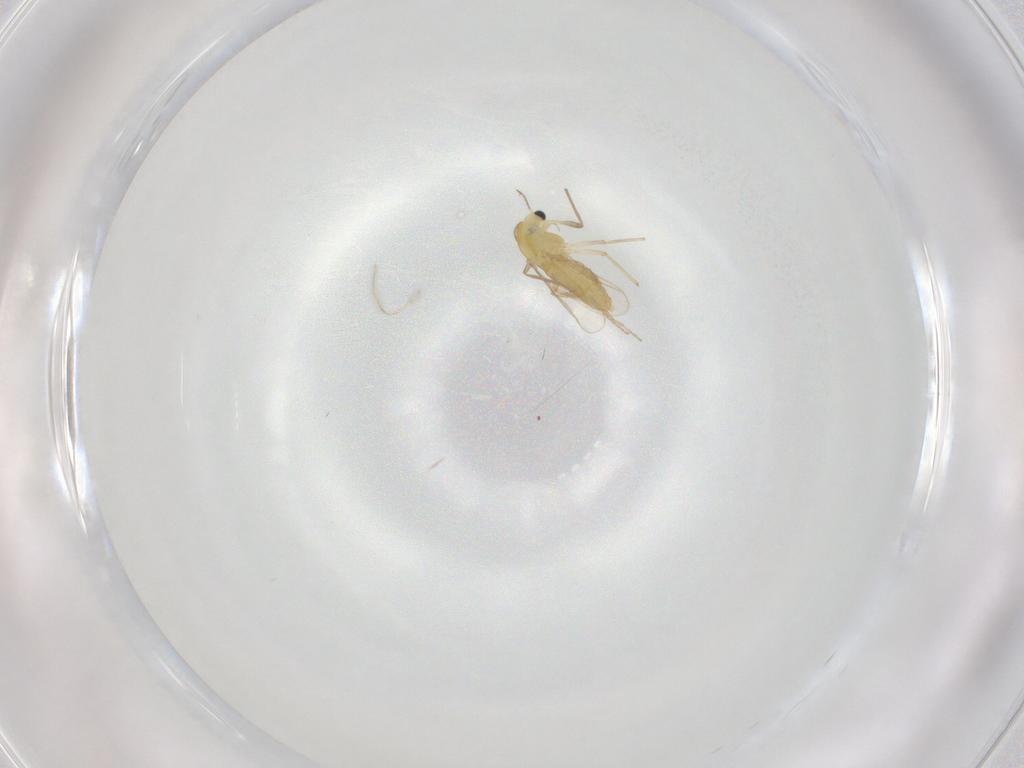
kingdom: Animalia
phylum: Arthropoda
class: Insecta
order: Diptera
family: Chironomidae
